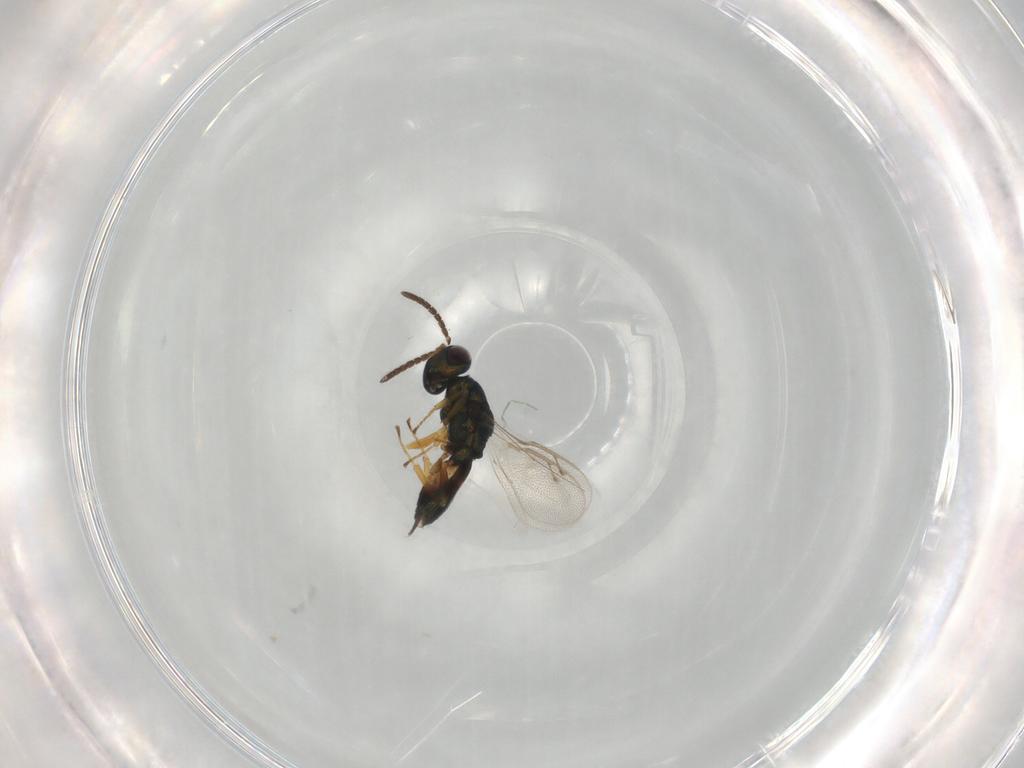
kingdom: Animalia
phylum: Arthropoda
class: Insecta
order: Hymenoptera
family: Pteromalidae
